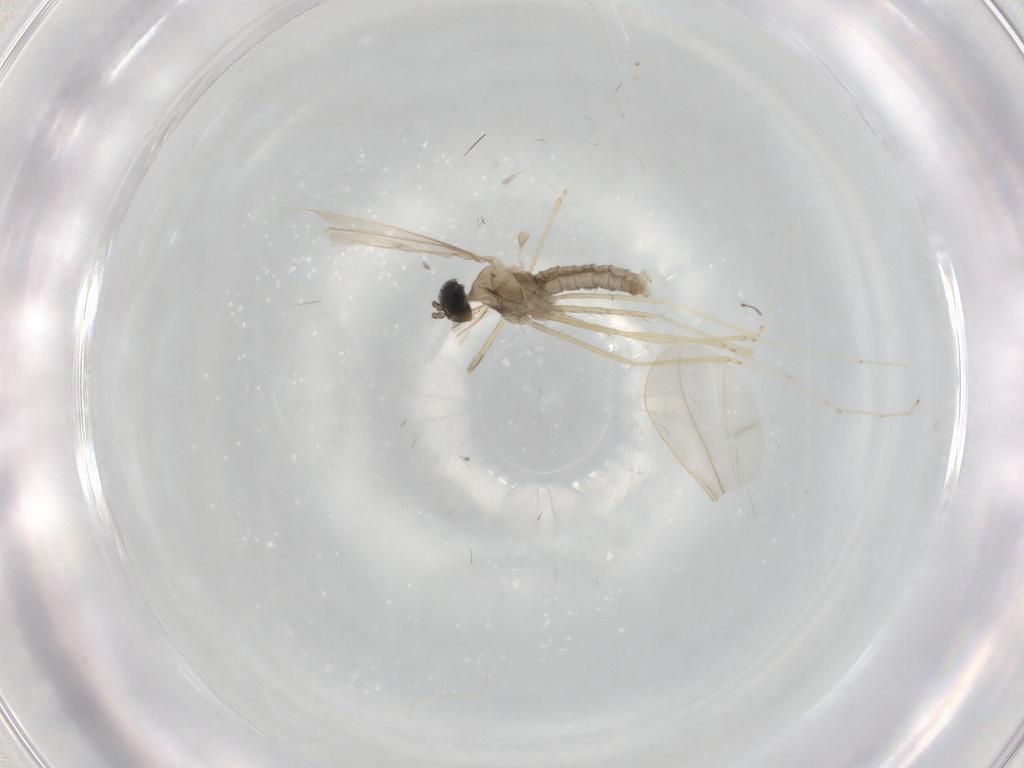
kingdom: Animalia
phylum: Arthropoda
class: Insecta
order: Diptera
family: Cecidomyiidae
